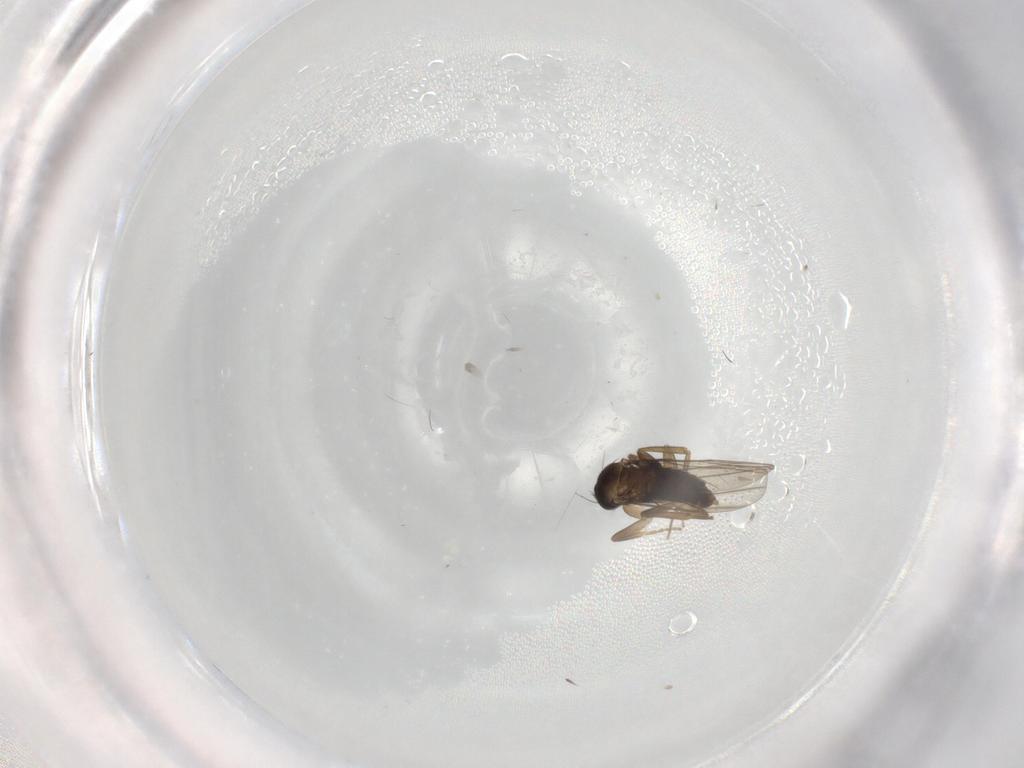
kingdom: Animalia
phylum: Arthropoda
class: Insecta
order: Diptera
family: Phoridae
